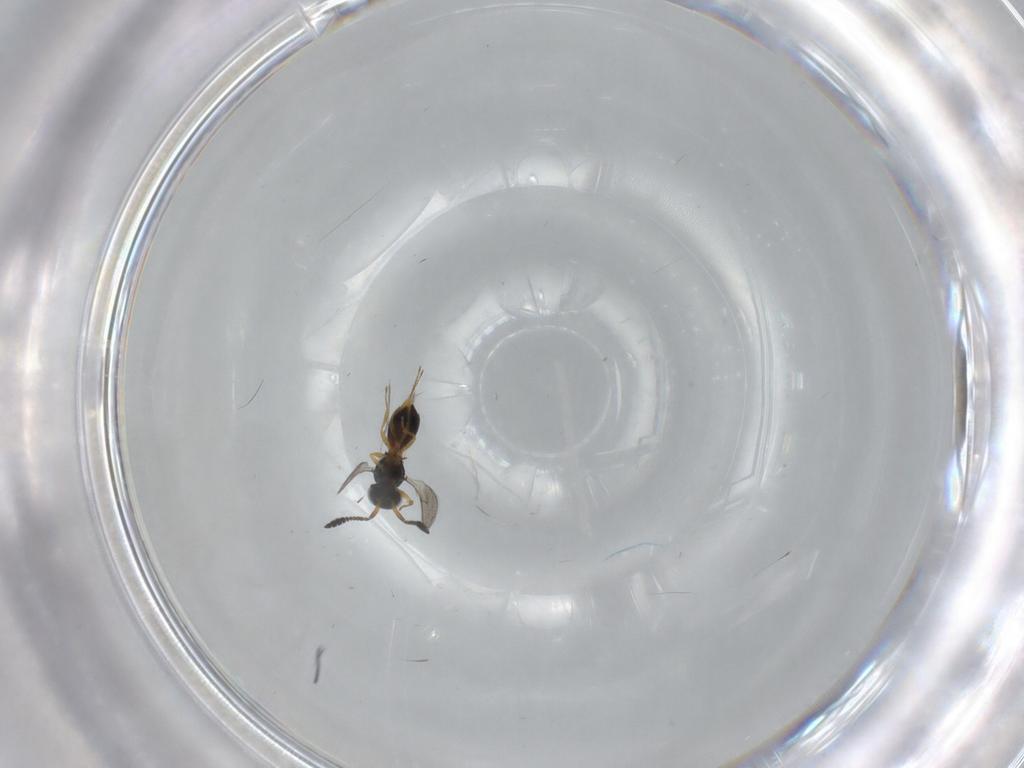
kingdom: Animalia
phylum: Arthropoda
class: Insecta
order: Hymenoptera
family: Scelionidae
